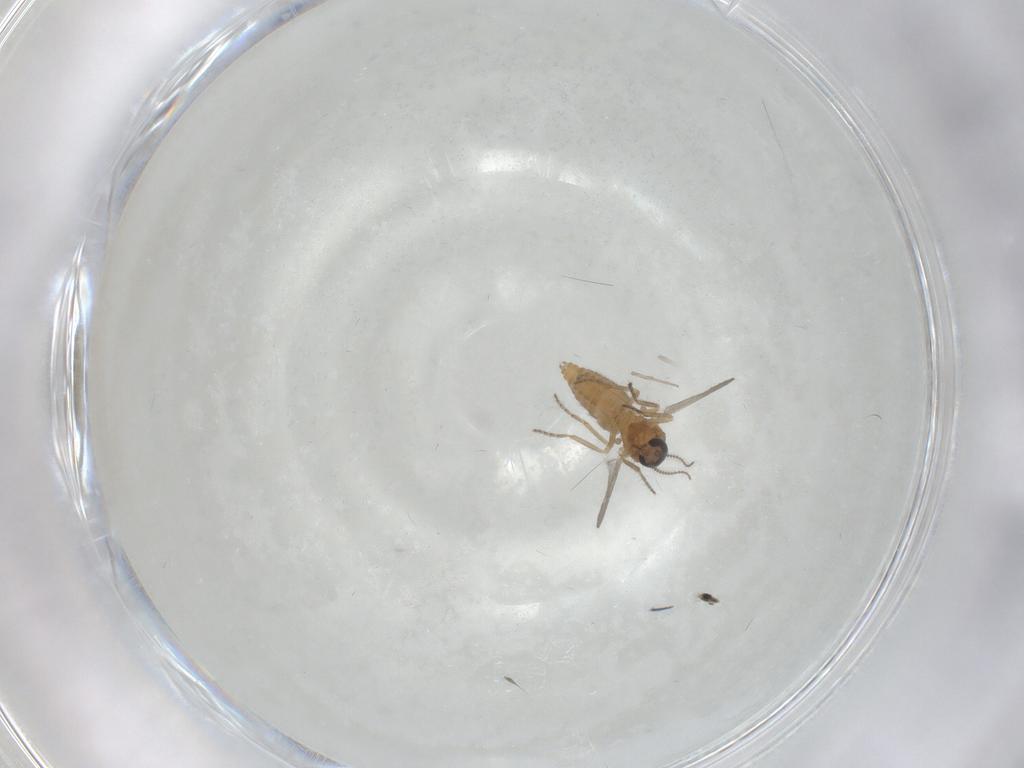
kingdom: Animalia
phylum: Arthropoda
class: Insecta
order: Diptera
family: Ceratopogonidae
